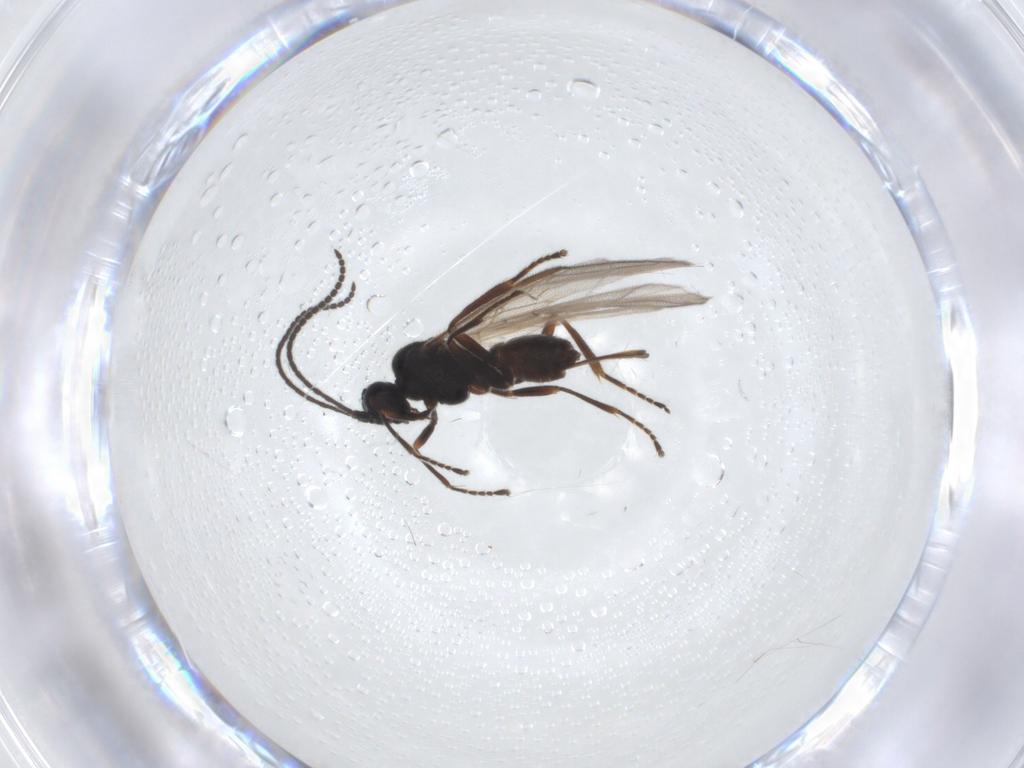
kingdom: Animalia
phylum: Arthropoda
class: Insecta
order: Hymenoptera
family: Braconidae
